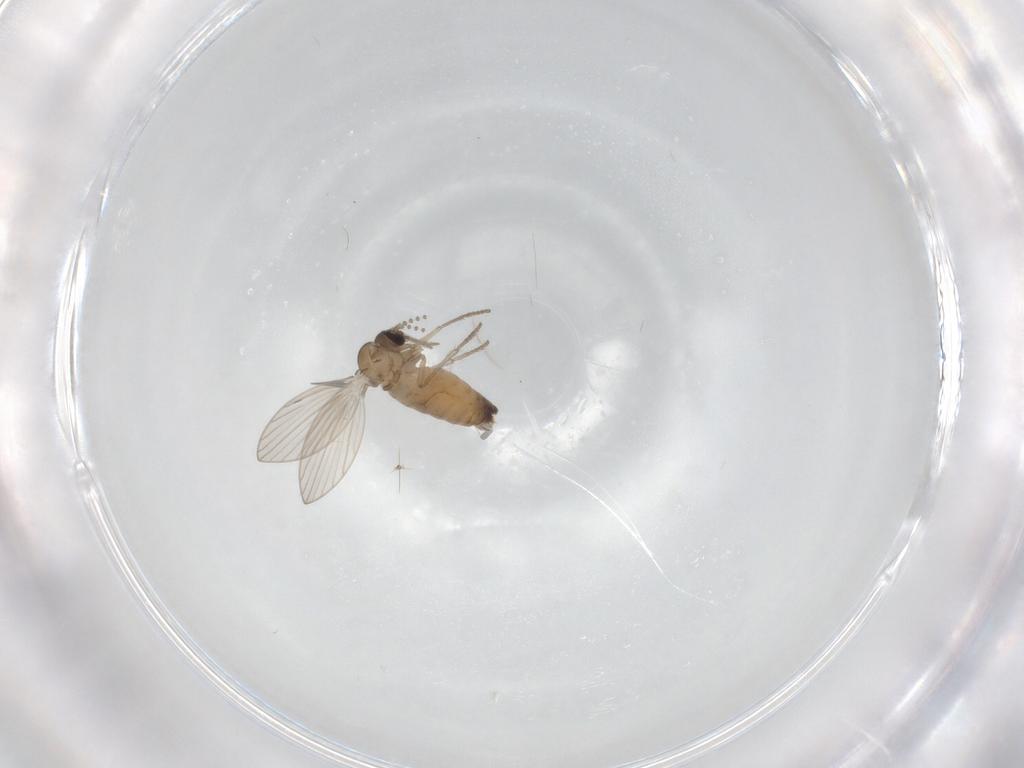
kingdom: Animalia
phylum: Arthropoda
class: Insecta
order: Diptera
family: Psychodidae
